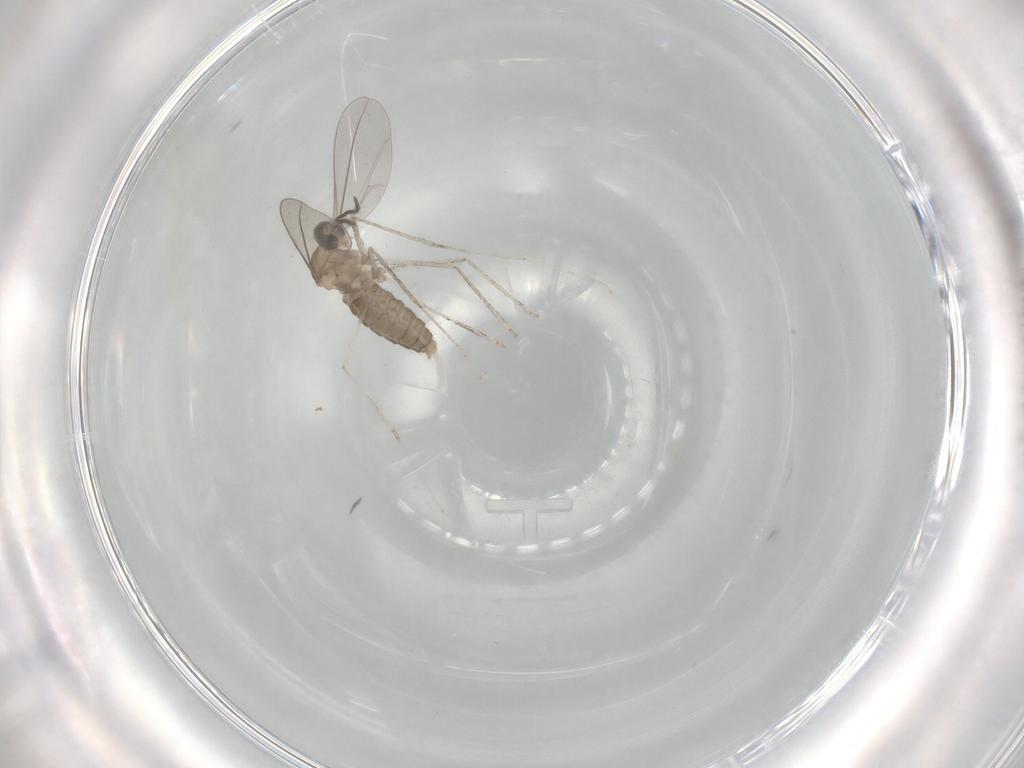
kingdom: Animalia
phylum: Arthropoda
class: Insecta
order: Diptera
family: Cecidomyiidae
